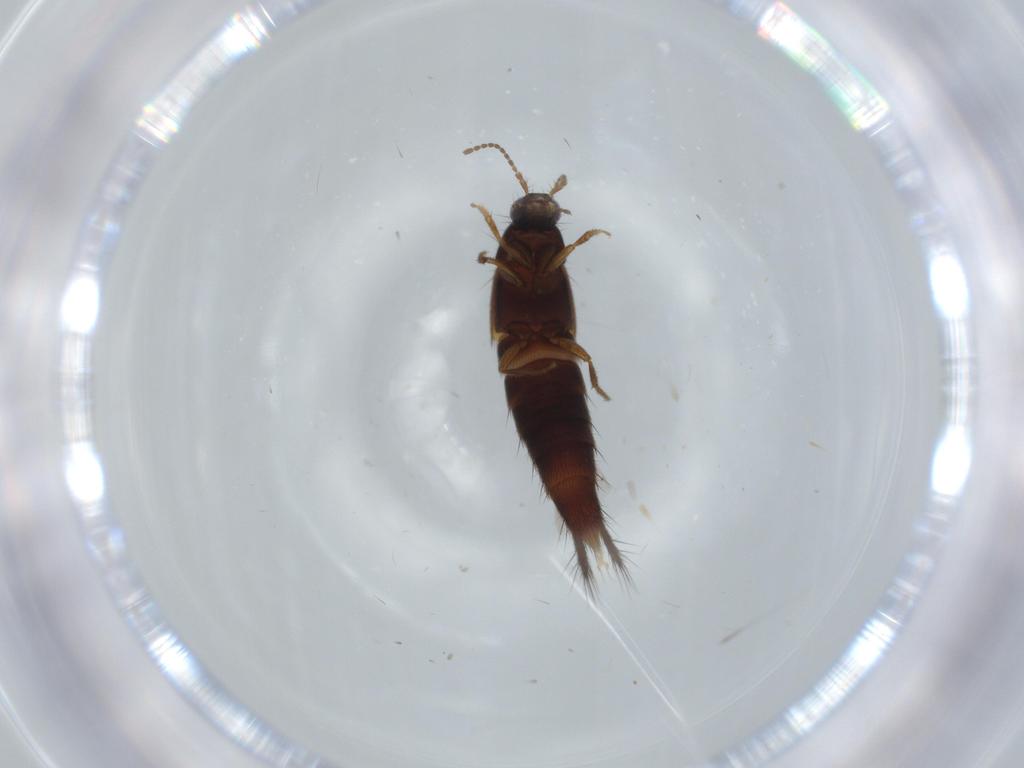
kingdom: Animalia
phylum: Arthropoda
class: Insecta
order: Coleoptera
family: Staphylinidae
